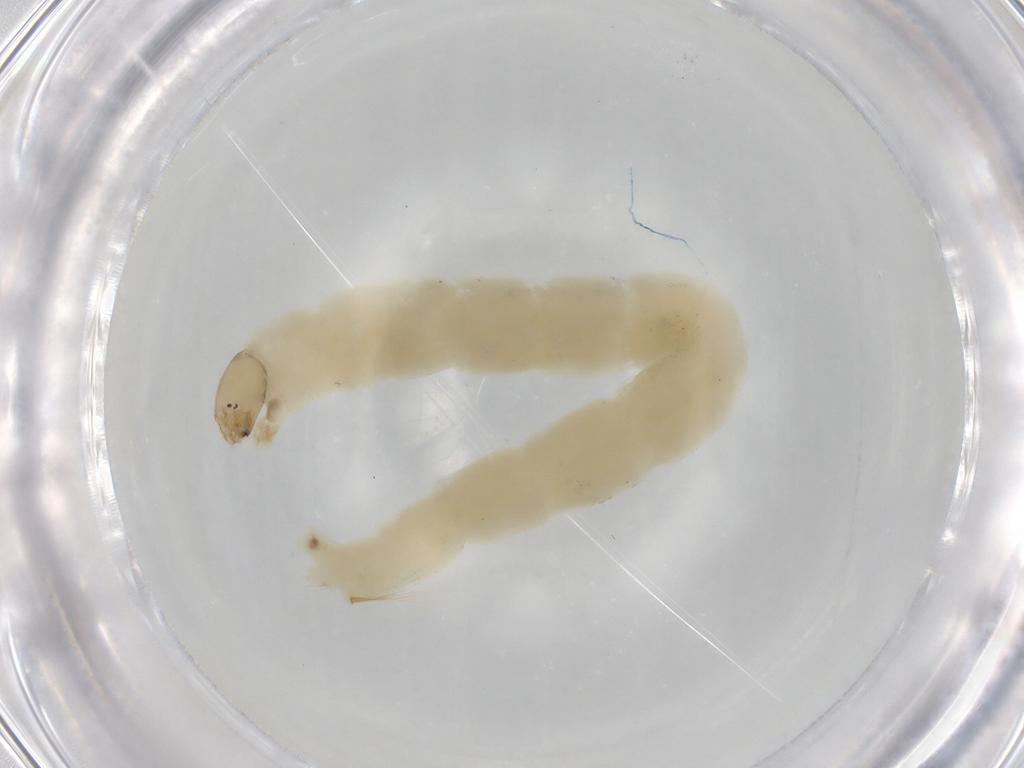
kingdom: Animalia
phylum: Arthropoda
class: Insecta
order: Diptera
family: Chironomidae
